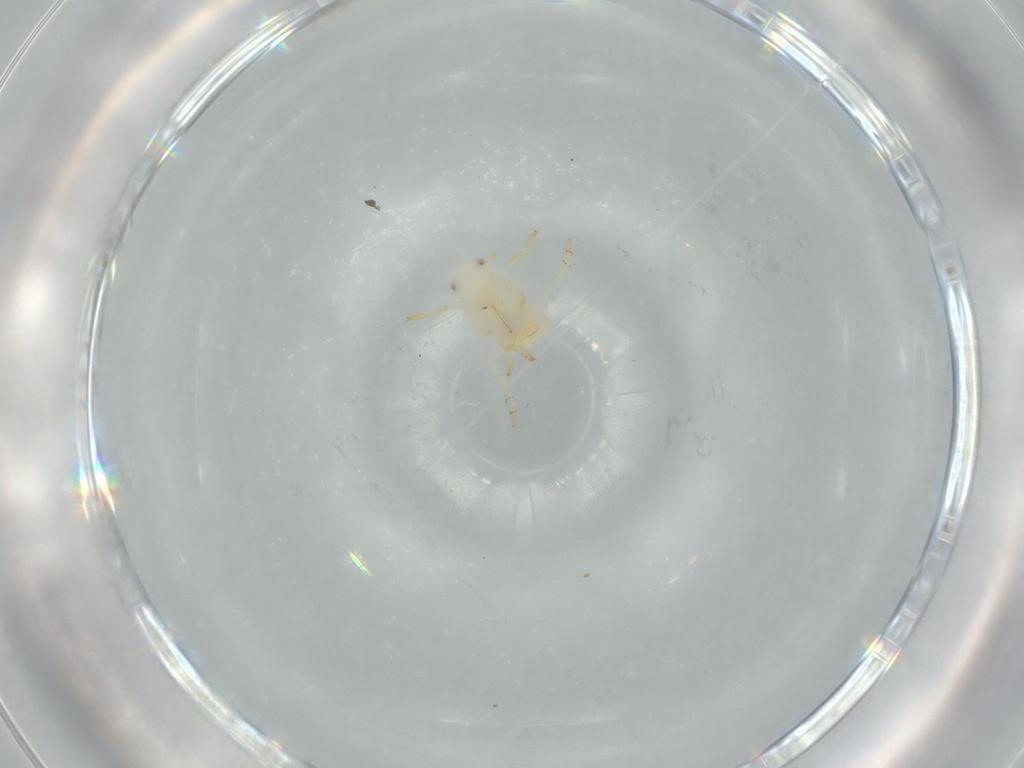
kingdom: Animalia
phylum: Arthropoda
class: Insecta
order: Hemiptera
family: Flatidae
